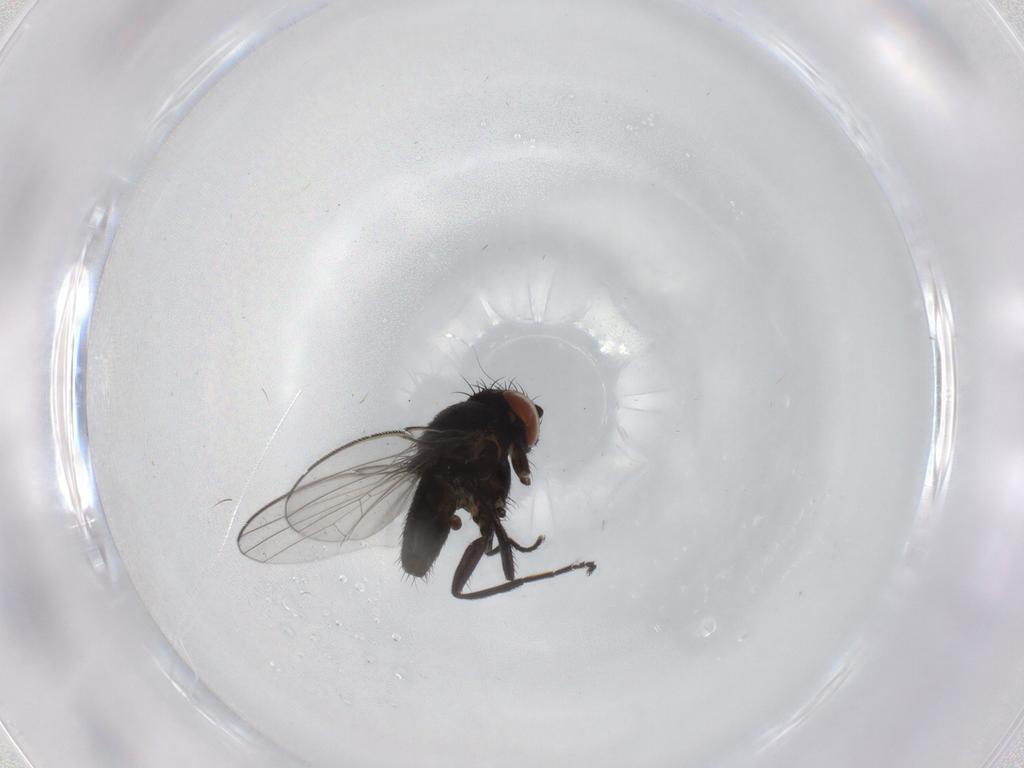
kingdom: Animalia
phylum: Arthropoda
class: Insecta
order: Diptera
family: Milichiidae
